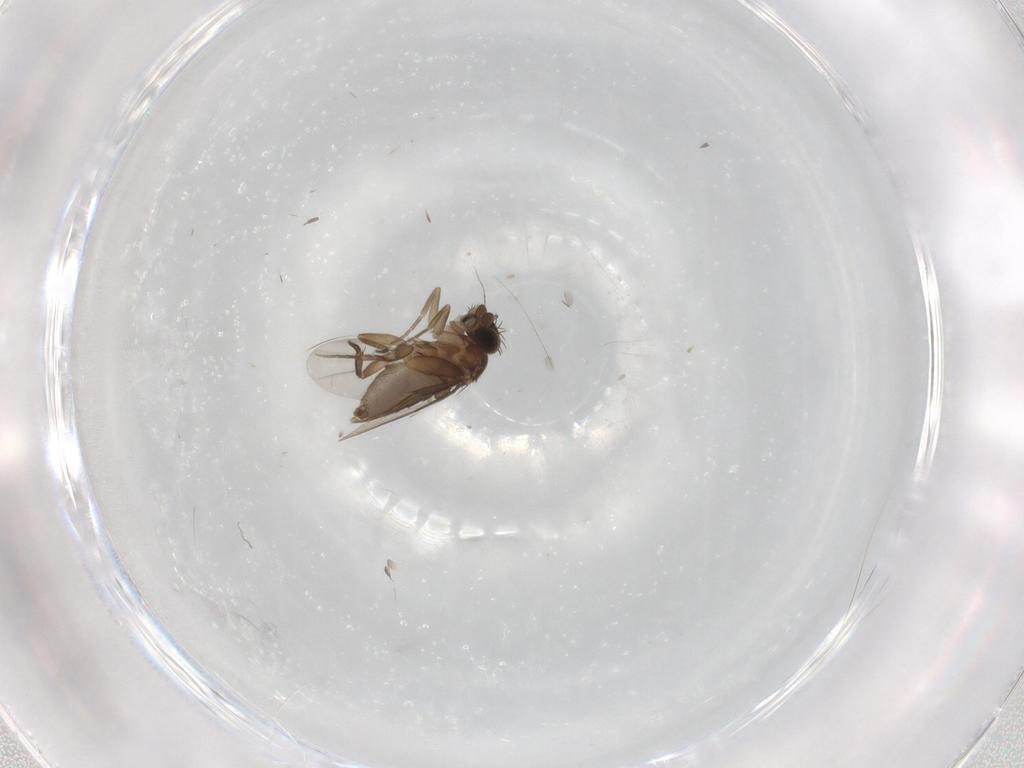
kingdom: Animalia
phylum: Arthropoda
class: Insecta
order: Diptera
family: Phoridae
